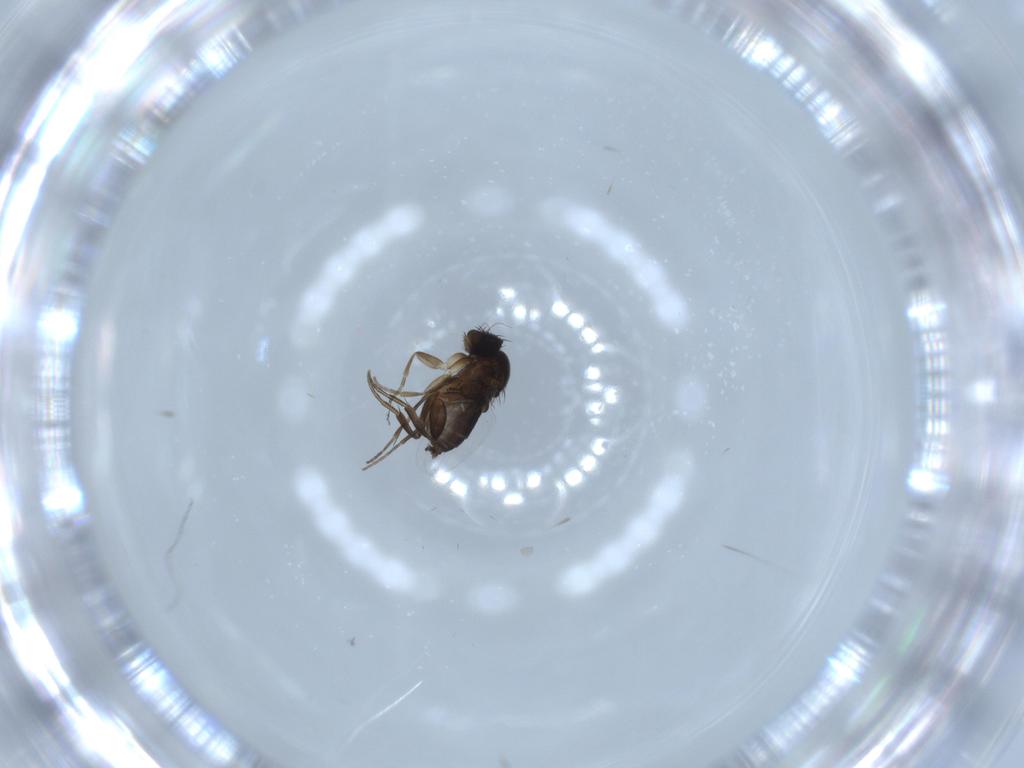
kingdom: Animalia
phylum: Arthropoda
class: Insecta
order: Diptera
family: Phoridae
